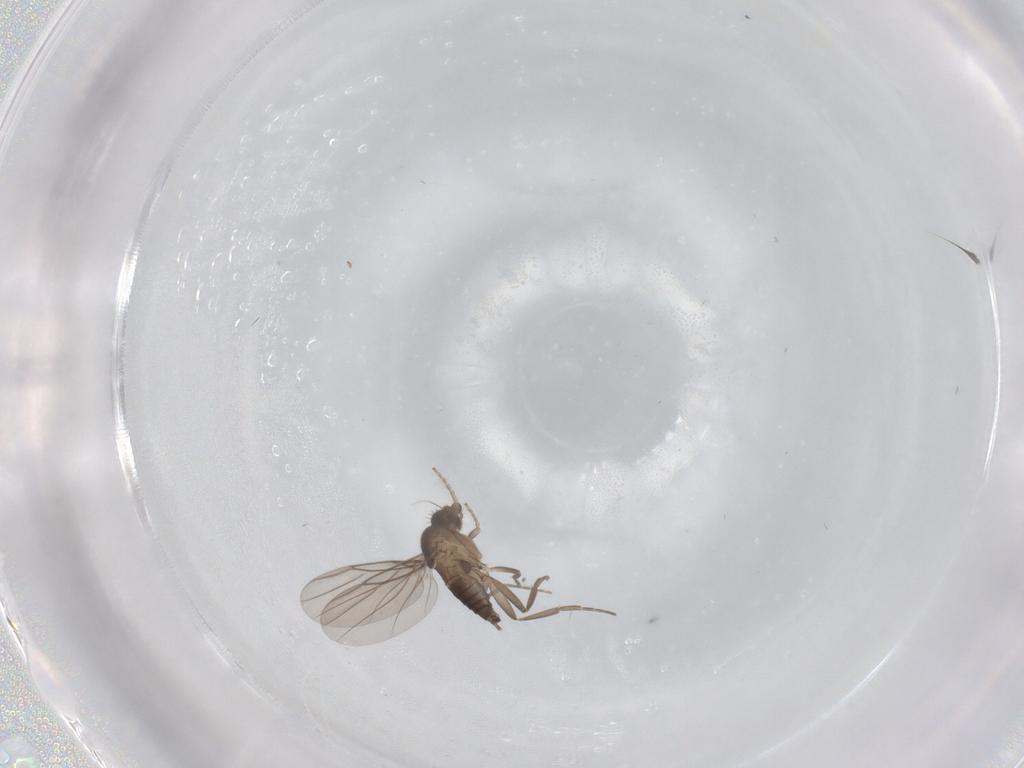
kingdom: Animalia
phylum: Arthropoda
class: Insecta
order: Diptera
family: Chironomidae
